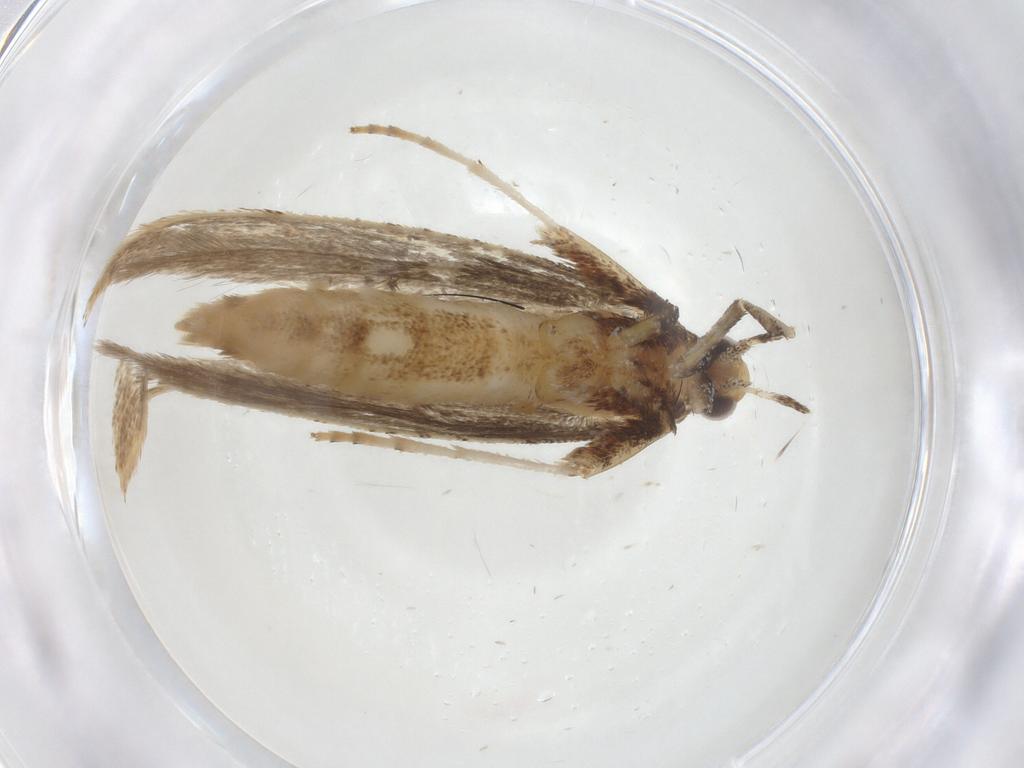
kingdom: Animalia
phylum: Arthropoda
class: Insecta
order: Lepidoptera
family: Gracillariidae
